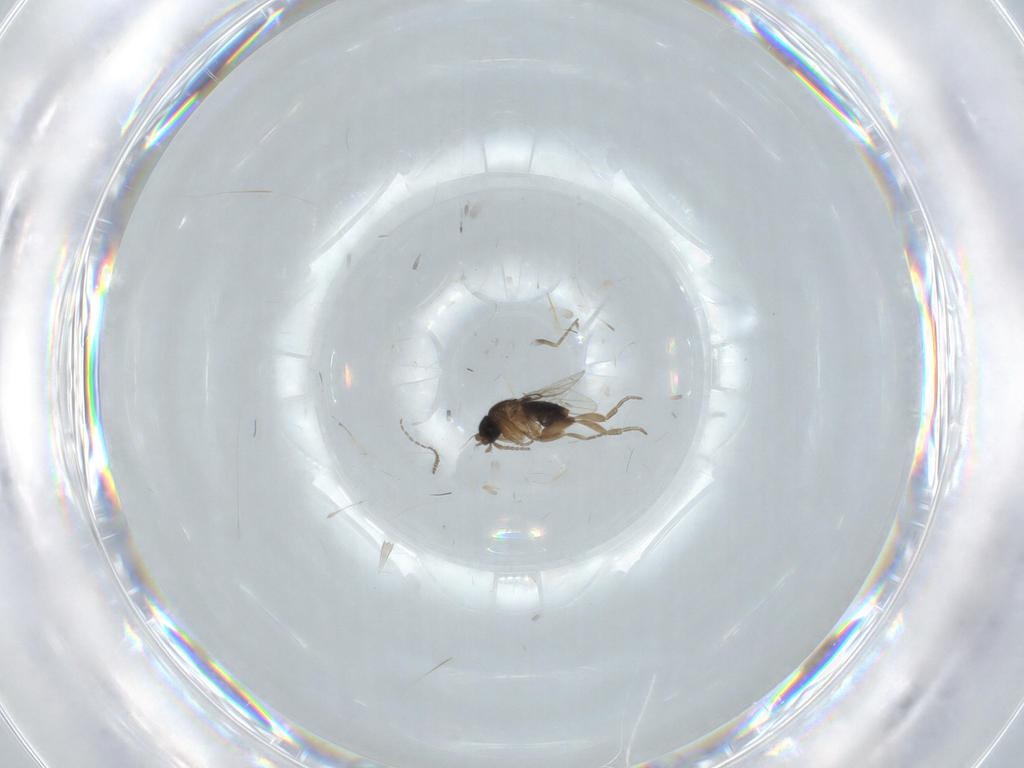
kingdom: Animalia
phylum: Arthropoda
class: Insecta
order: Diptera
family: Phoridae
